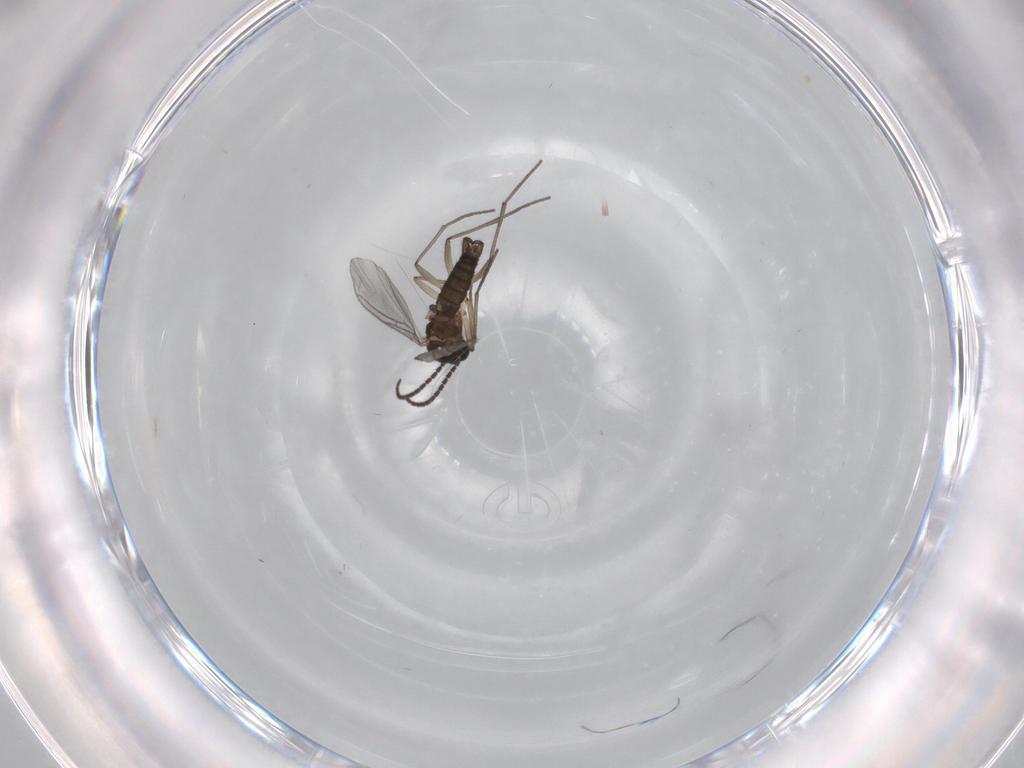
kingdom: Animalia
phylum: Arthropoda
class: Insecta
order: Diptera
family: Sciaridae
